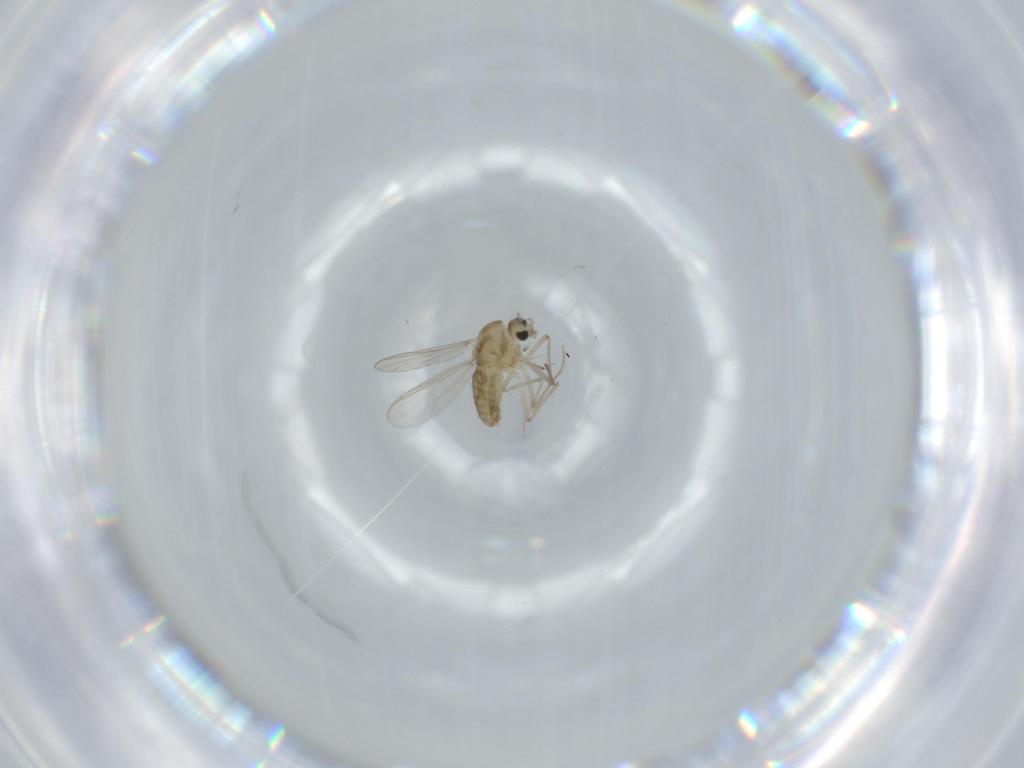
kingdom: Animalia
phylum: Arthropoda
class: Insecta
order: Diptera
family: Chironomidae
